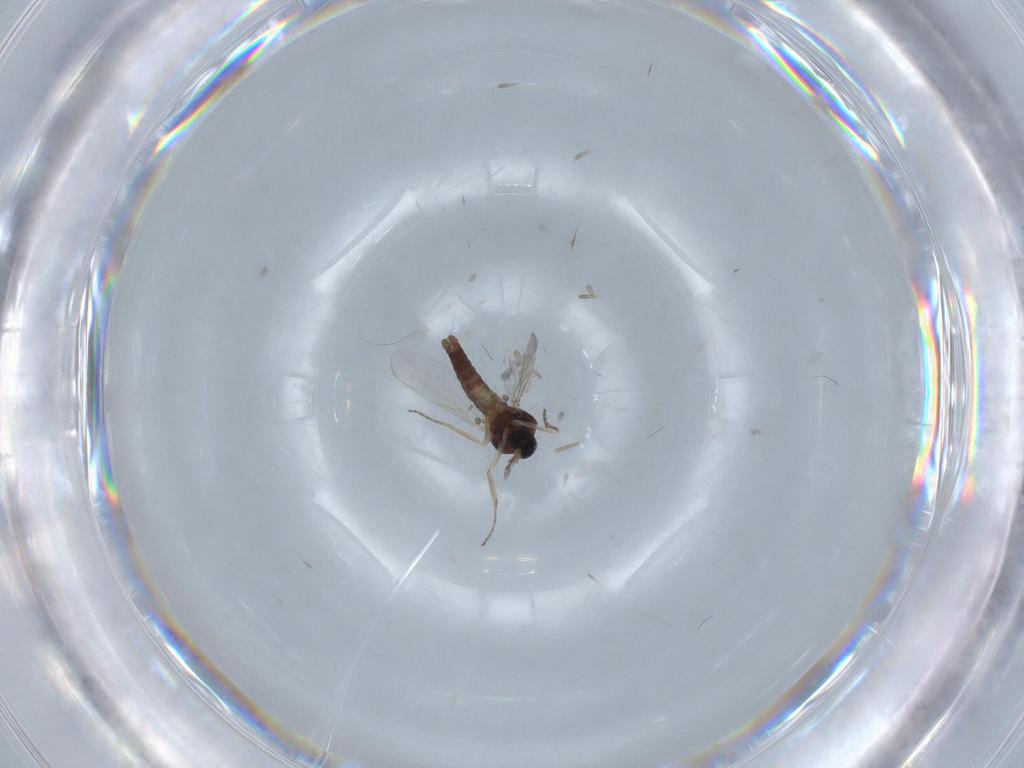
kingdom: Animalia
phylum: Arthropoda
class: Insecta
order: Diptera
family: Ceratopogonidae
